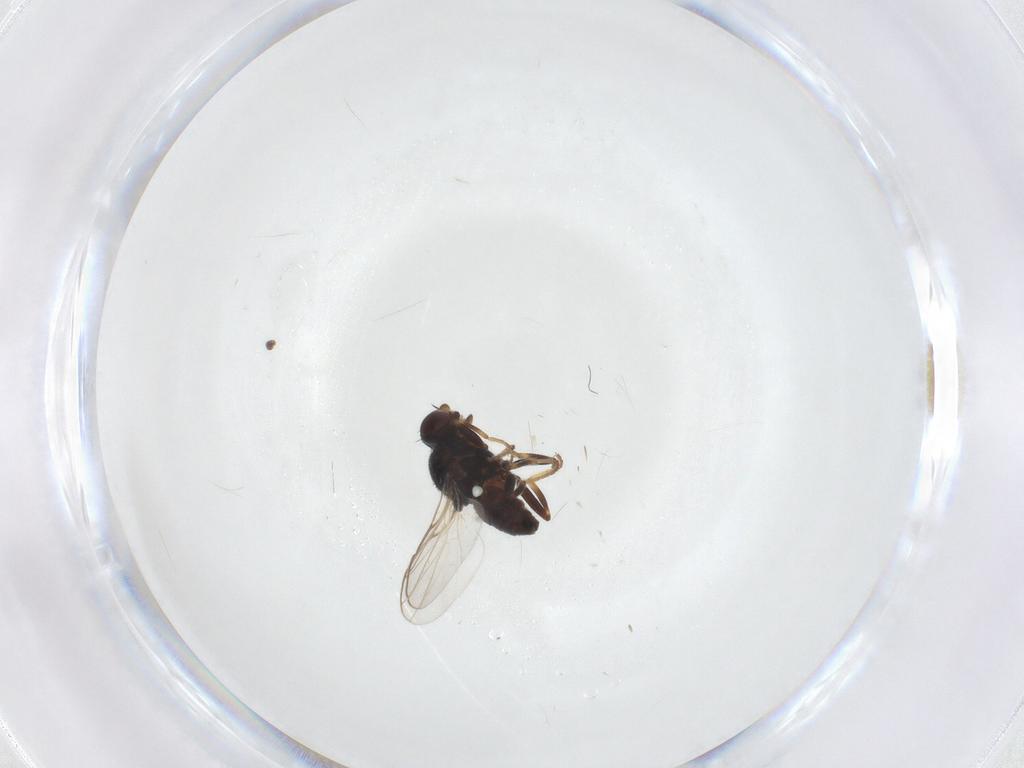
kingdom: Animalia
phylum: Arthropoda
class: Insecta
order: Diptera
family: Chloropidae
